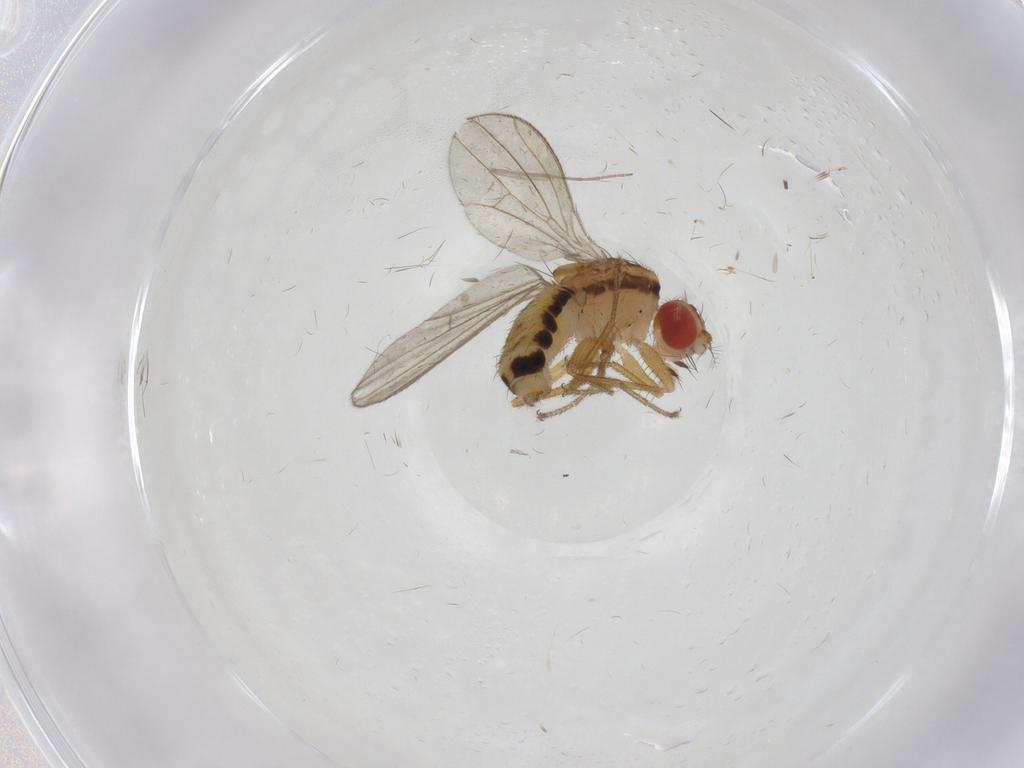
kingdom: Animalia
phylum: Arthropoda
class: Insecta
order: Diptera
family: Drosophilidae
